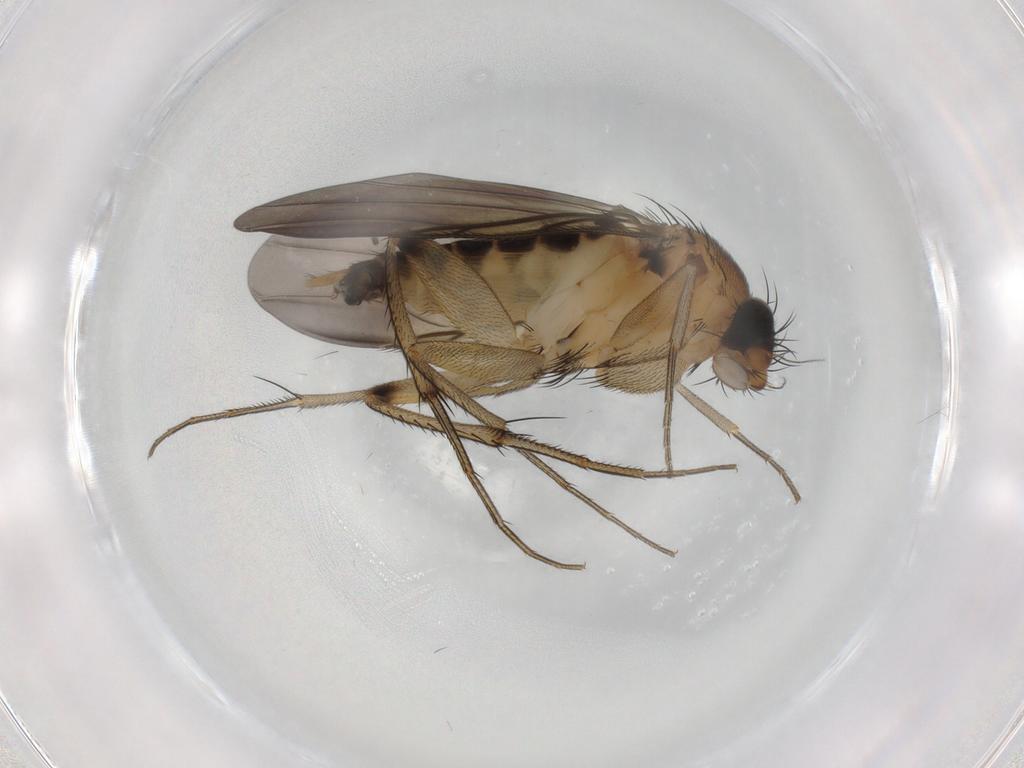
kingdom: Animalia
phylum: Arthropoda
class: Insecta
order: Diptera
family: Phoridae
